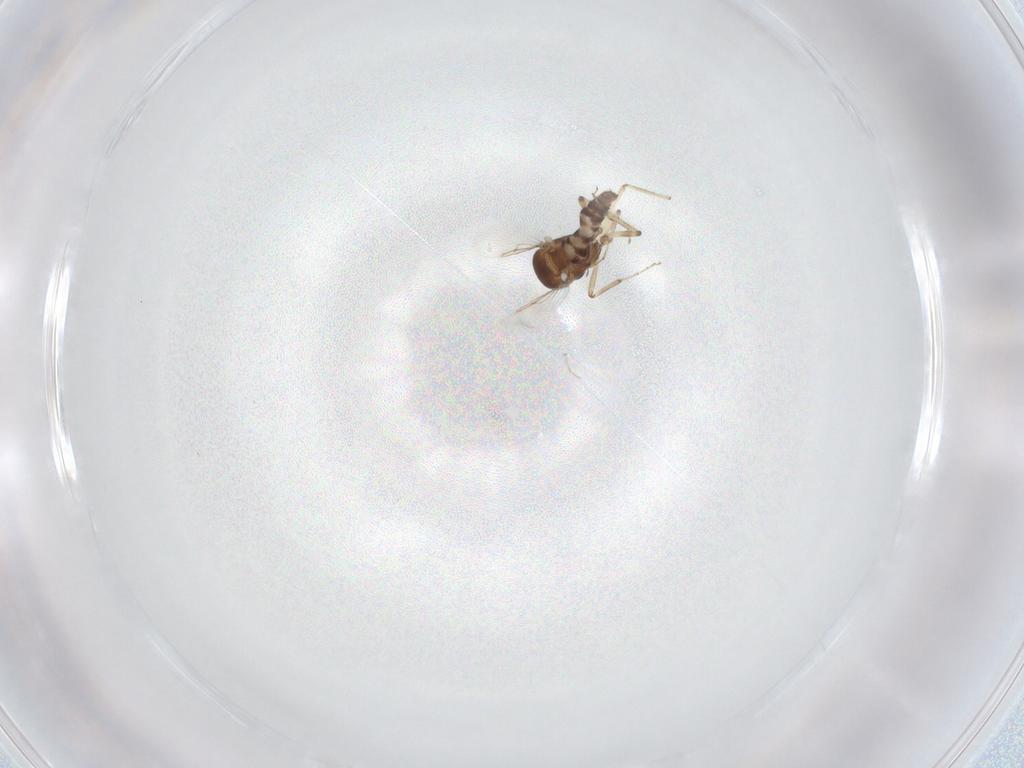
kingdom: Animalia
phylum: Arthropoda
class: Insecta
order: Diptera
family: Ceratopogonidae
